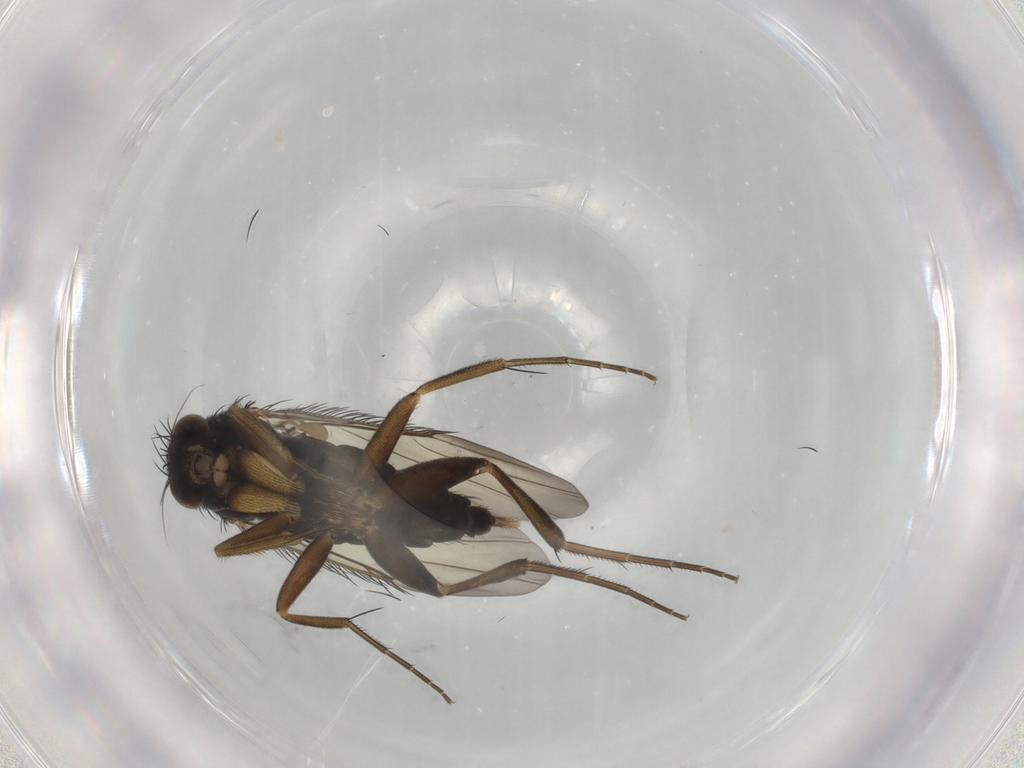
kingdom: Animalia
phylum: Arthropoda
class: Insecta
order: Diptera
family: Phoridae
